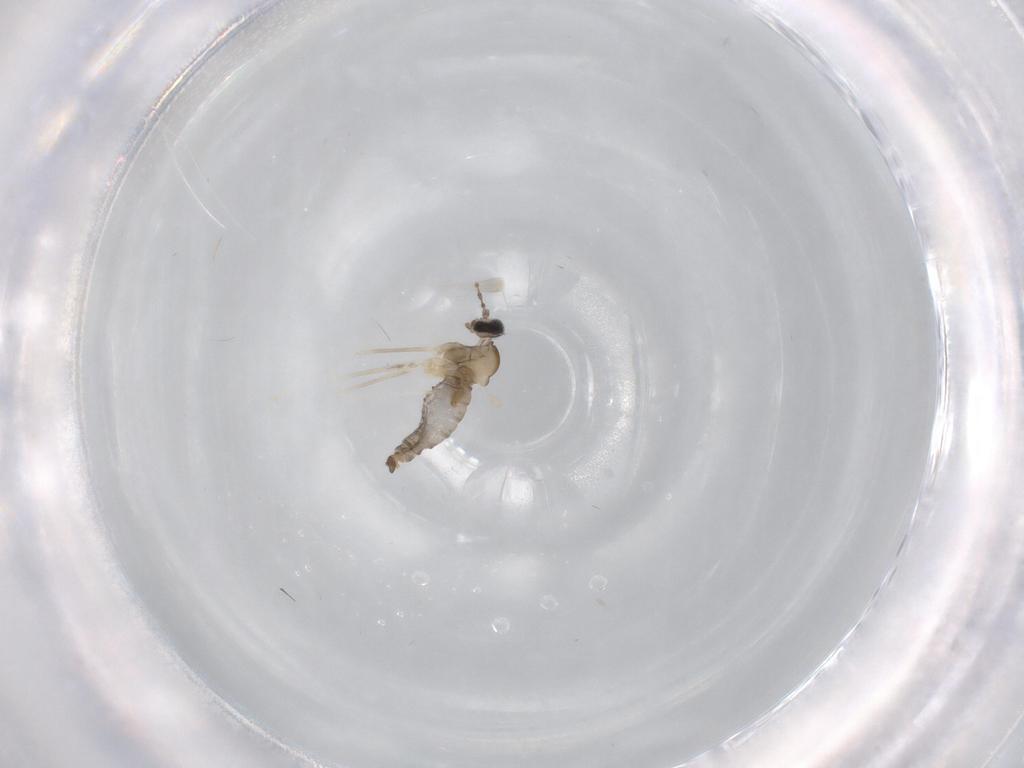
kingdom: Animalia
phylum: Arthropoda
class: Insecta
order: Diptera
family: Cecidomyiidae
